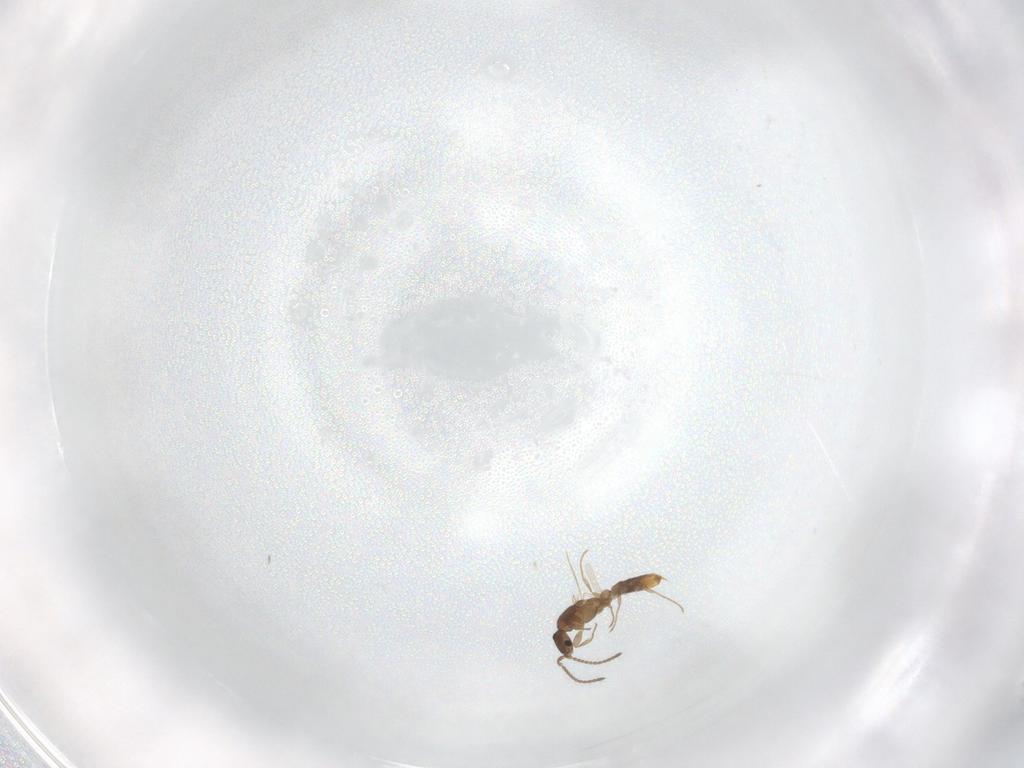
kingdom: Animalia
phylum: Arthropoda
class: Insecta
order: Hymenoptera
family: Formicidae
